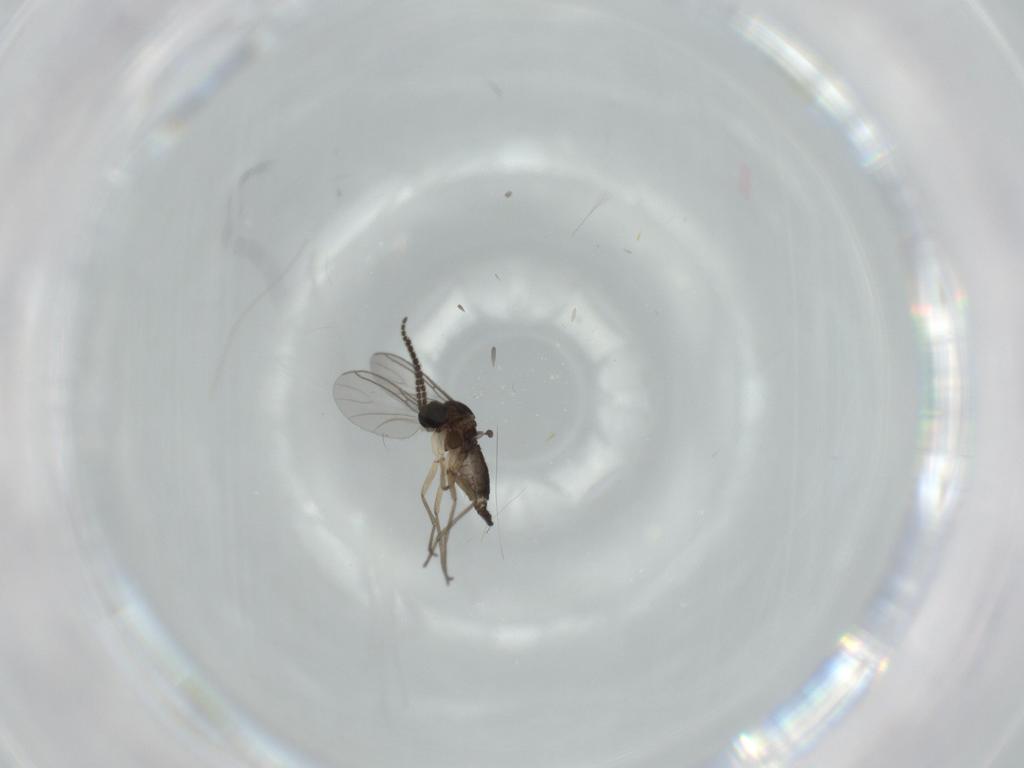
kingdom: Animalia
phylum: Arthropoda
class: Insecta
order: Diptera
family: Sciaridae
